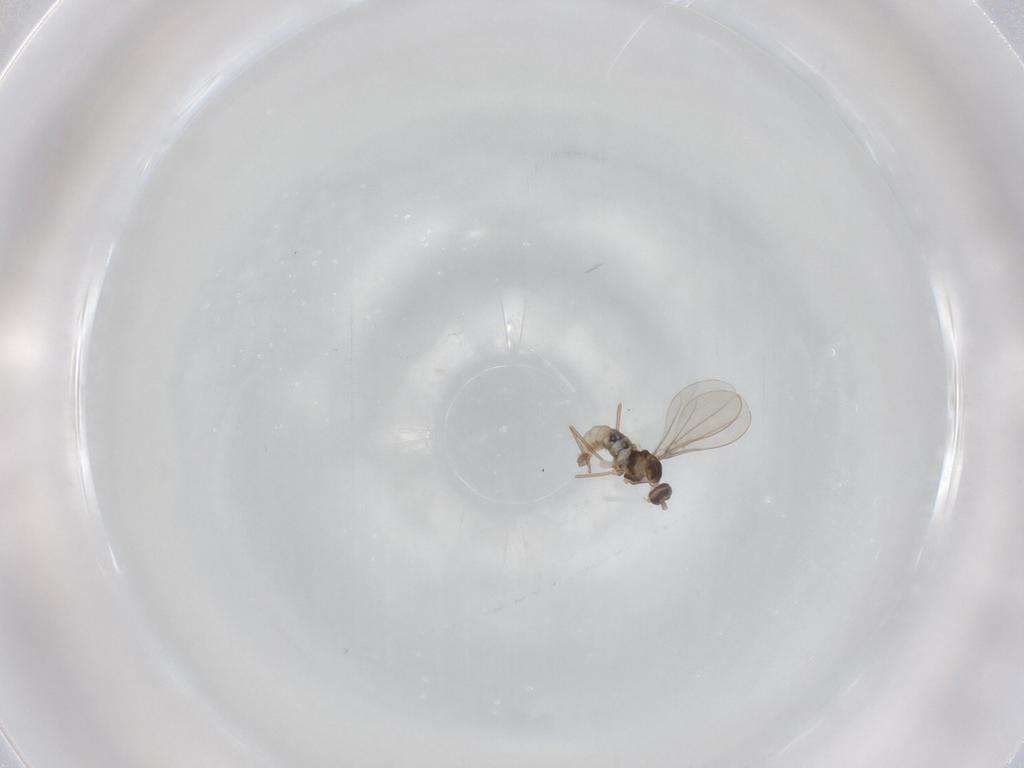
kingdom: Animalia
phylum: Arthropoda
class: Insecta
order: Diptera
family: Cecidomyiidae
